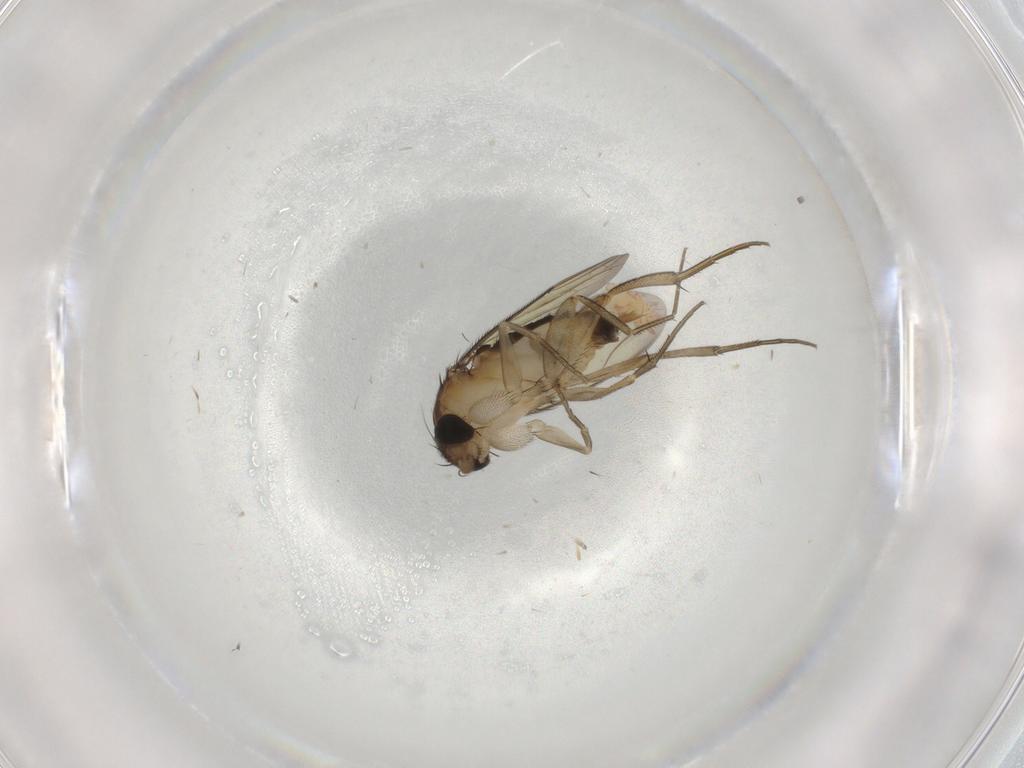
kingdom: Animalia
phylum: Arthropoda
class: Insecta
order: Diptera
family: Phoridae
